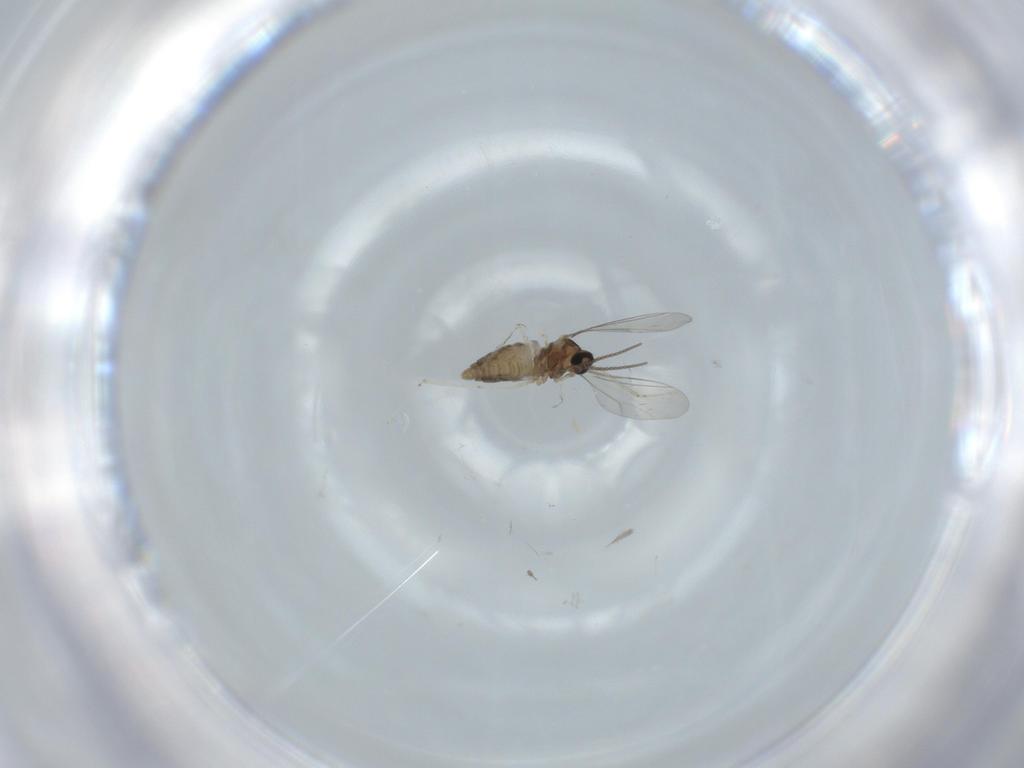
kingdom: Animalia
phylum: Arthropoda
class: Insecta
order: Diptera
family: Cecidomyiidae
